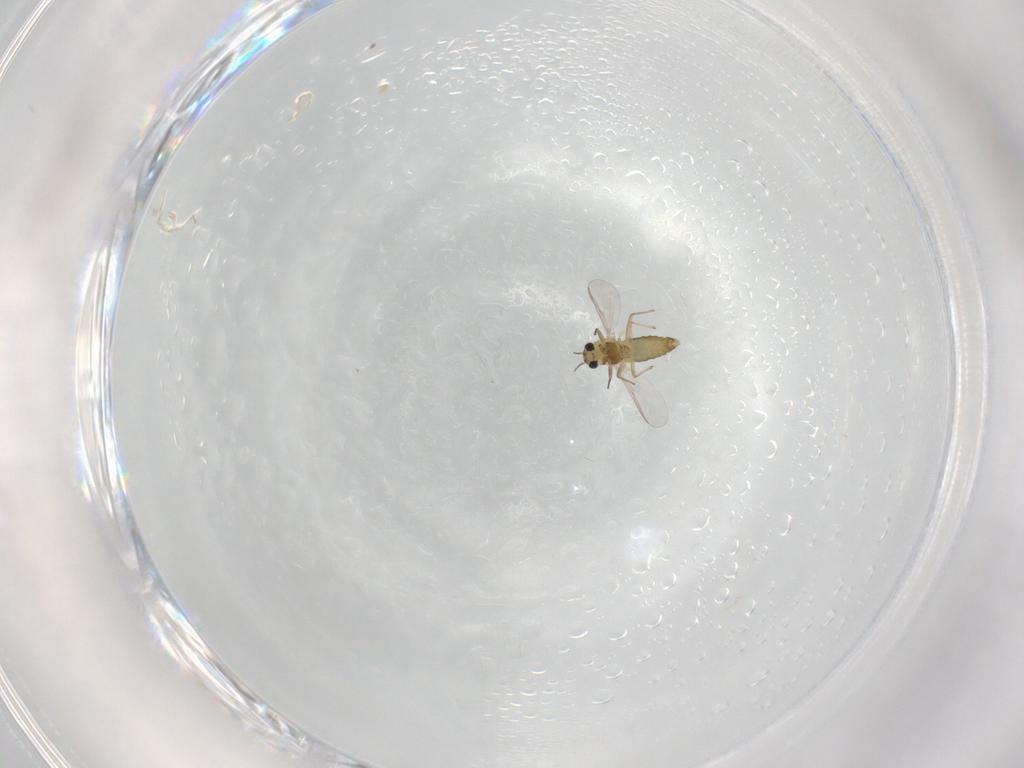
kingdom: Animalia
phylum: Arthropoda
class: Insecta
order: Diptera
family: Chironomidae
